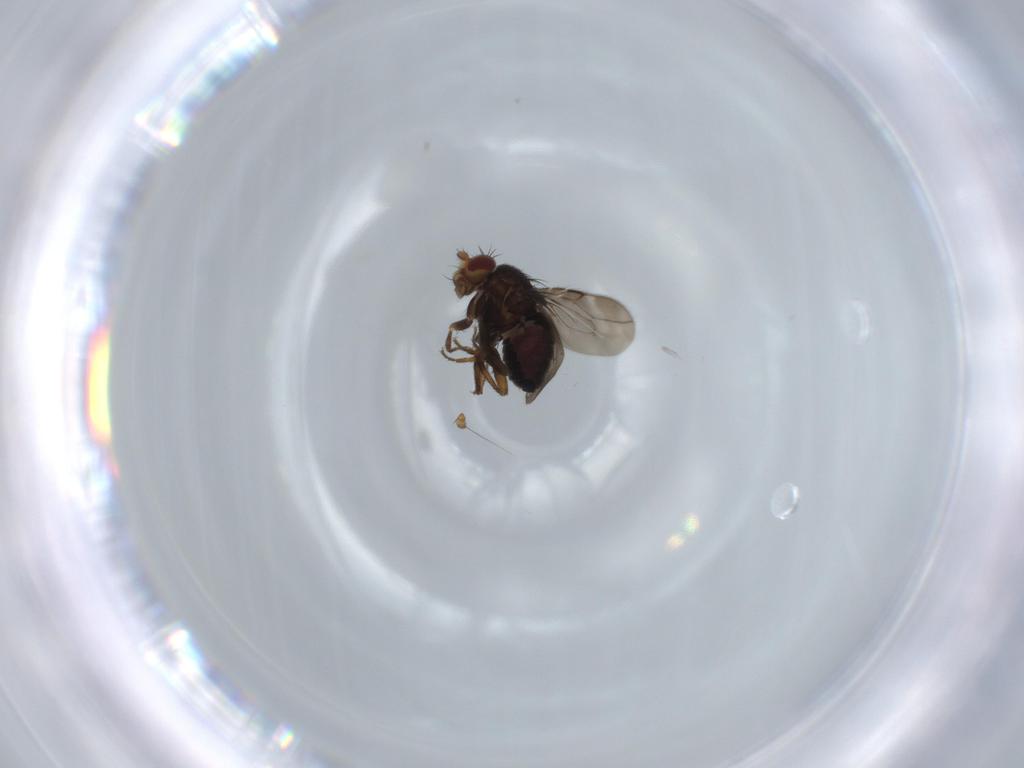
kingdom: Animalia
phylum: Arthropoda
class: Insecta
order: Diptera
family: Sphaeroceridae
